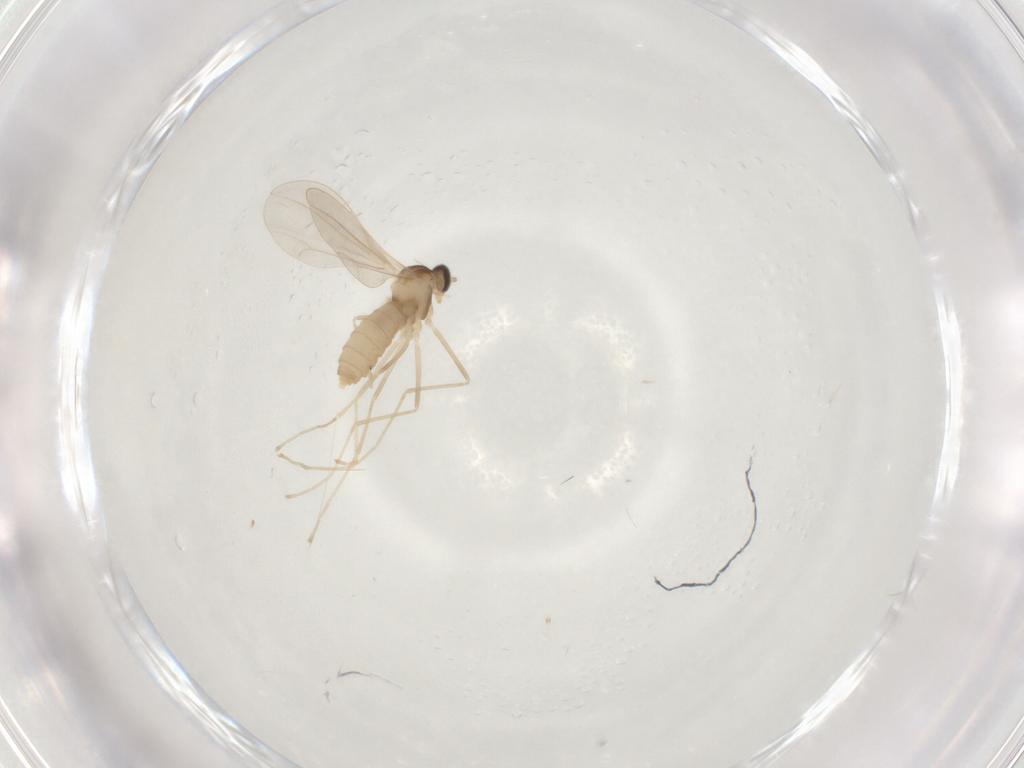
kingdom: Animalia
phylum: Arthropoda
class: Insecta
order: Diptera
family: Cecidomyiidae
